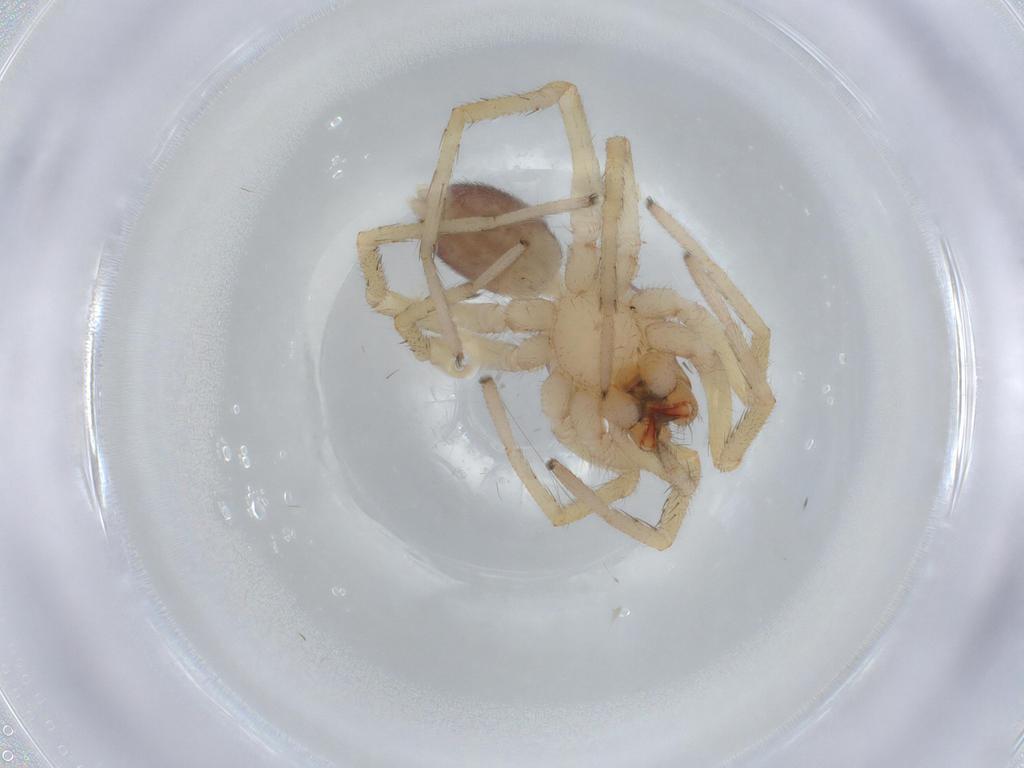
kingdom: Animalia
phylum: Arthropoda
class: Arachnida
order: Araneae
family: Corinnidae
